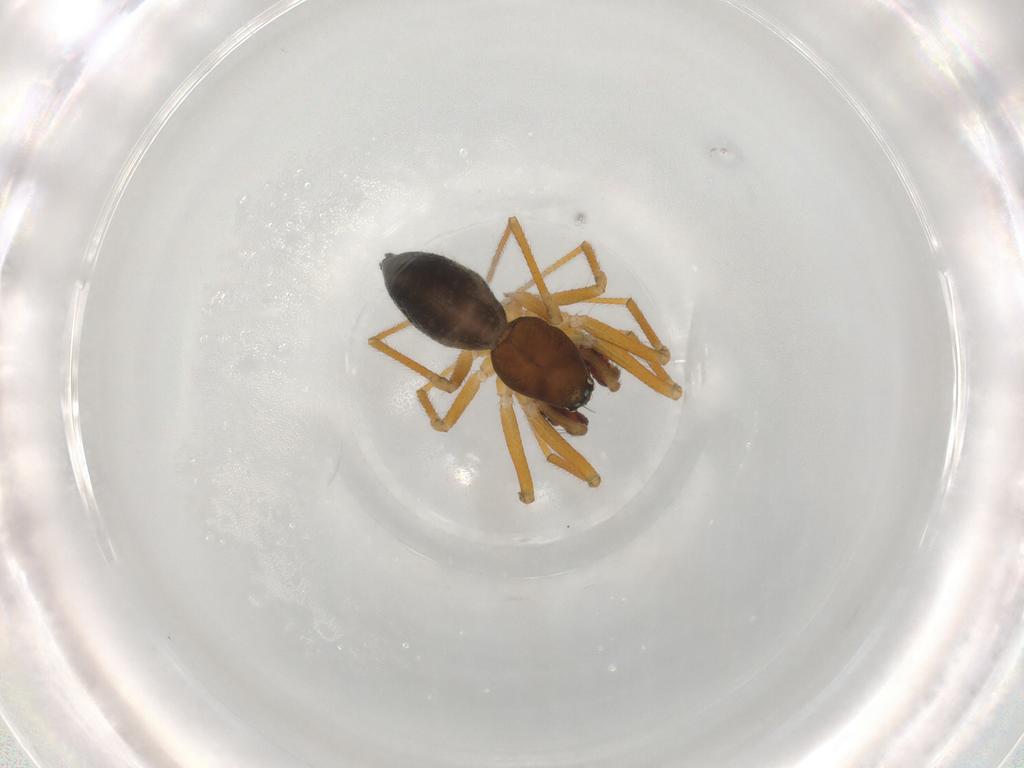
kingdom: Animalia
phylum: Arthropoda
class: Arachnida
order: Araneae
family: Linyphiidae
